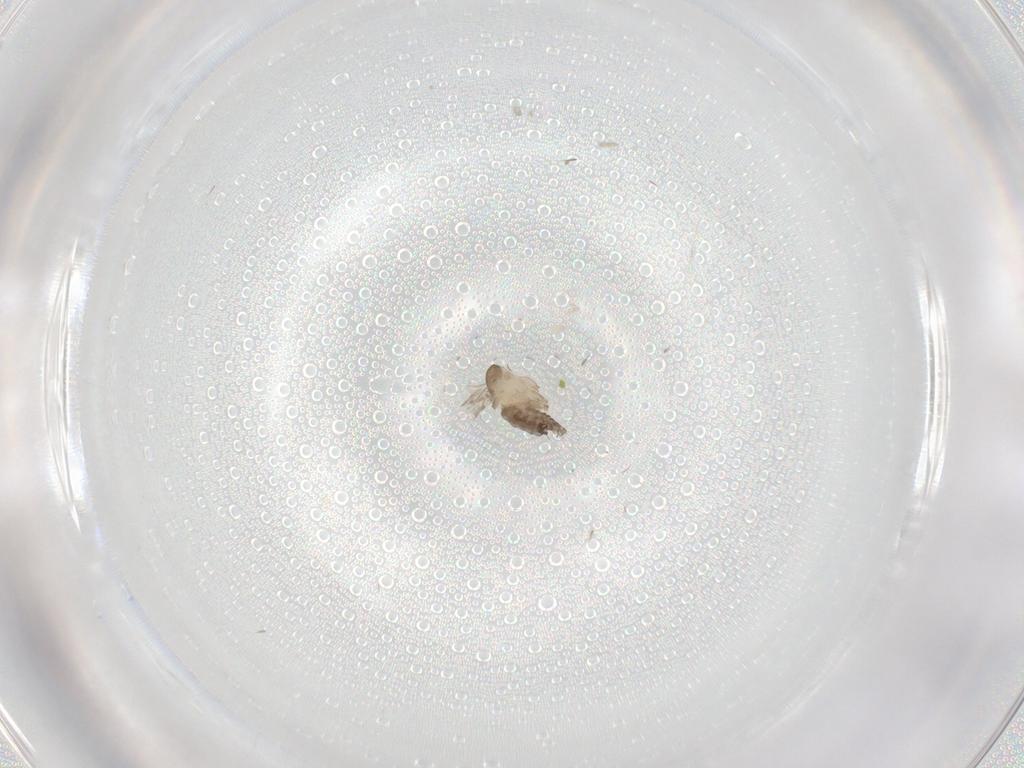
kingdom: Animalia
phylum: Arthropoda
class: Insecta
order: Diptera
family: Psychodidae
